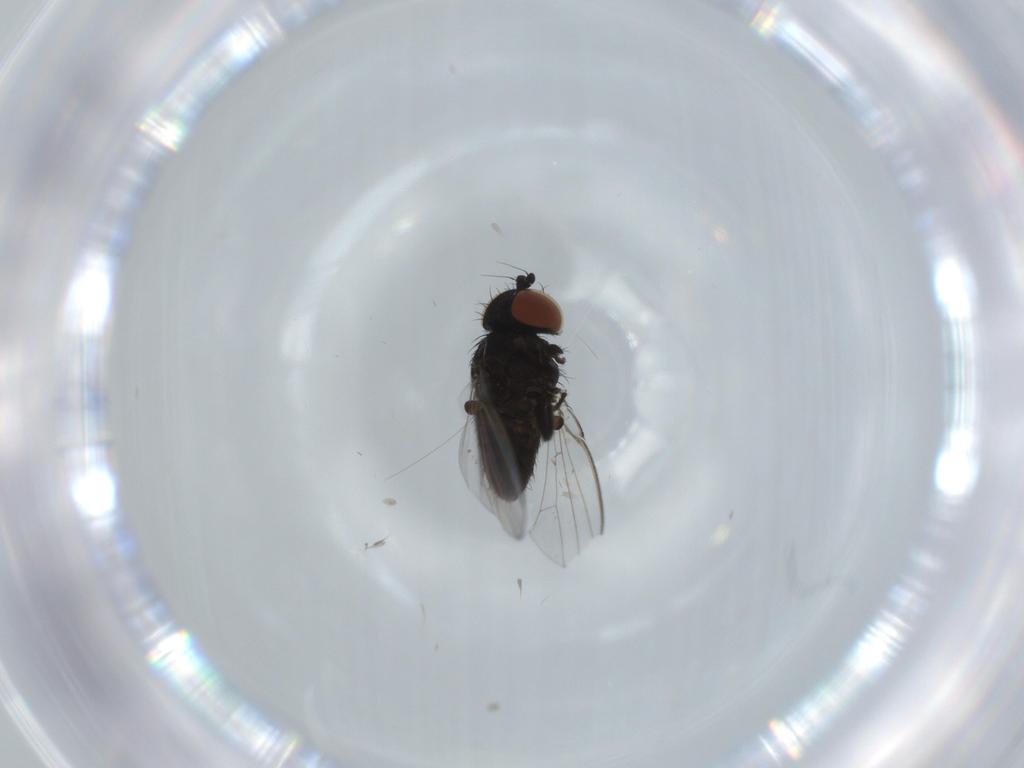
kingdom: Animalia
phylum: Arthropoda
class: Insecta
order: Diptera
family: Milichiidae
